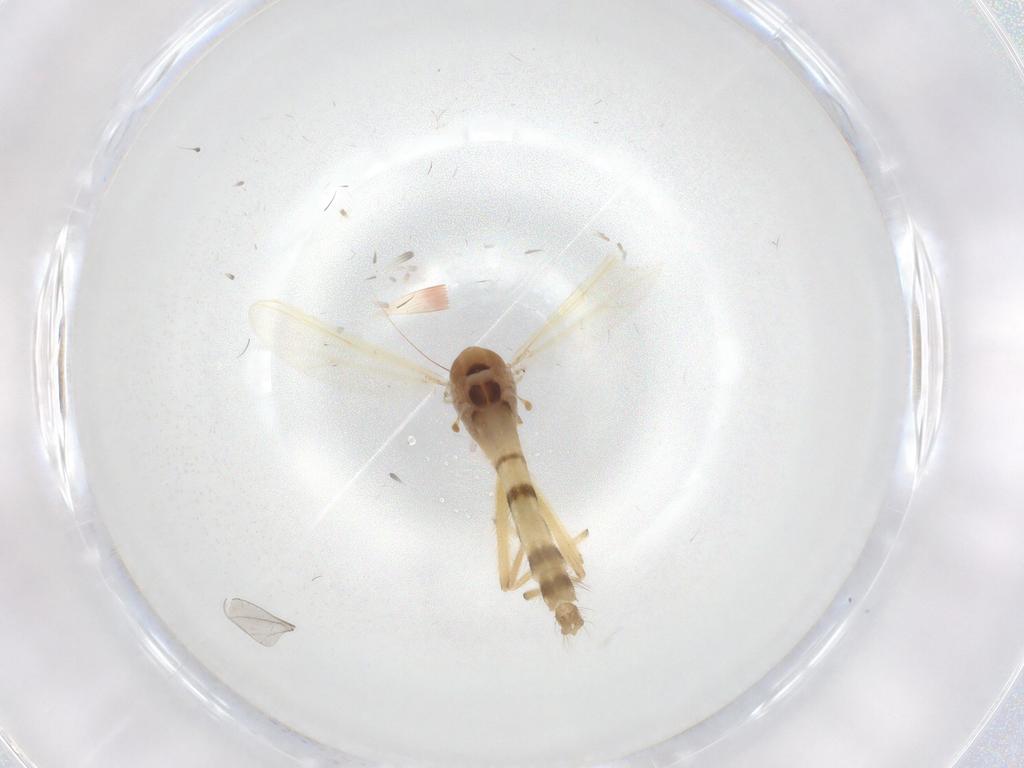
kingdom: Animalia
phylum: Arthropoda
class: Insecta
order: Diptera
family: Chironomidae
